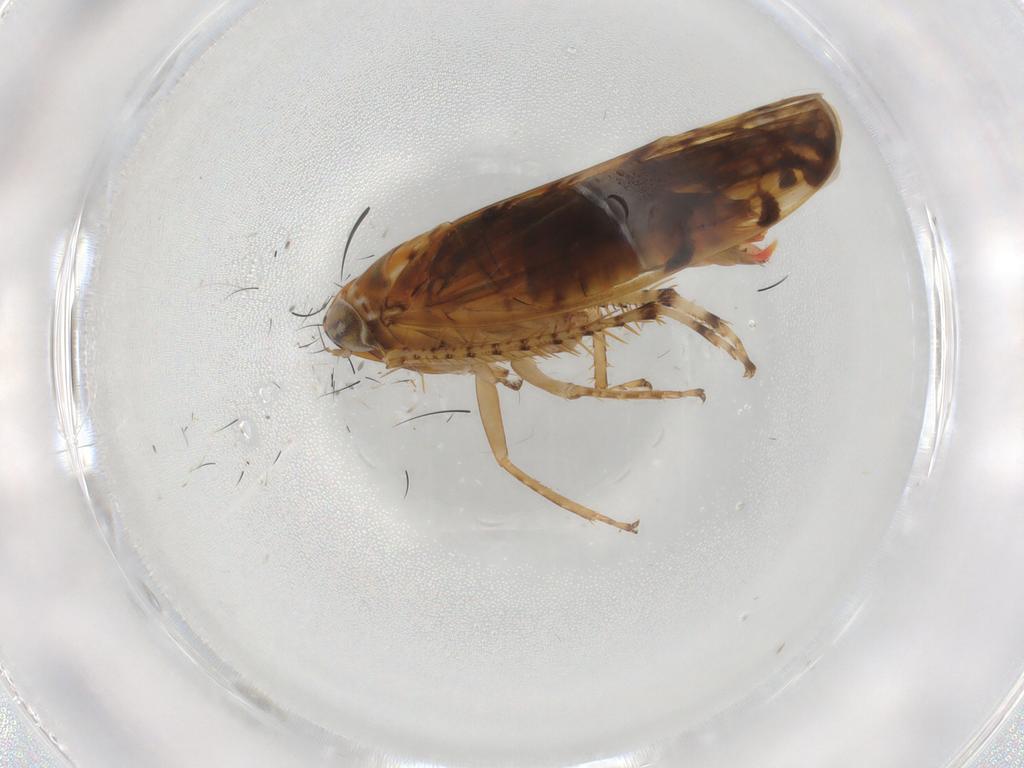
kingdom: Animalia
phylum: Arthropoda
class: Insecta
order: Hemiptera
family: Cicadellidae
